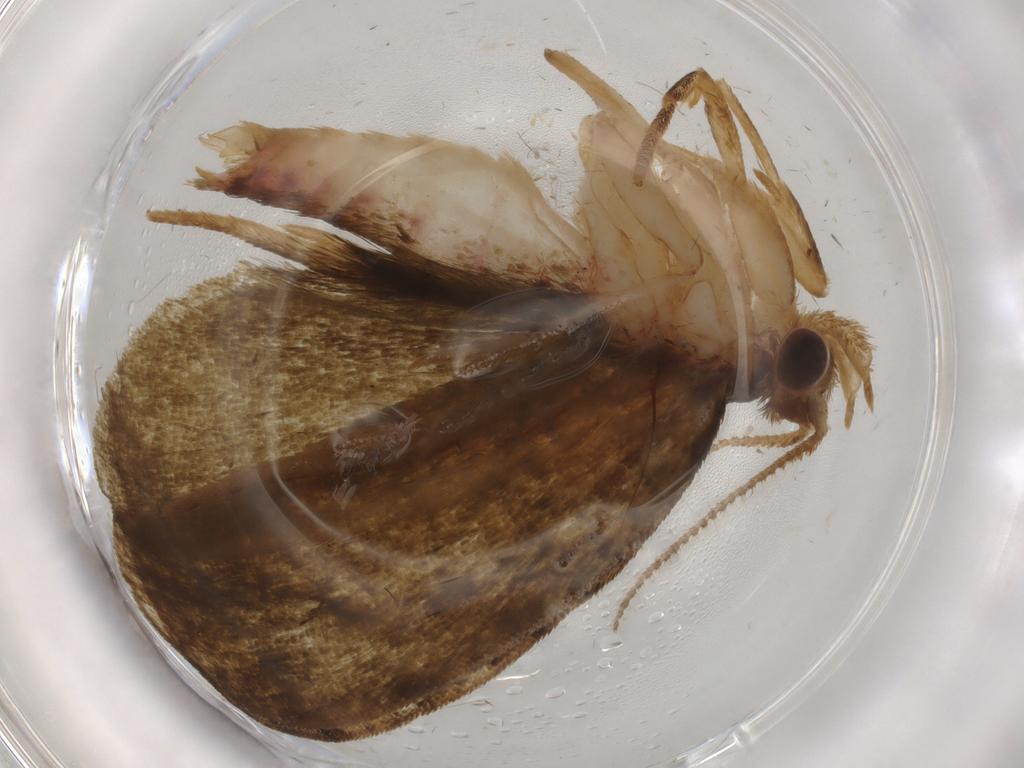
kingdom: Animalia
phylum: Arthropoda
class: Insecta
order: Lepidoptera
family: Geometridae
